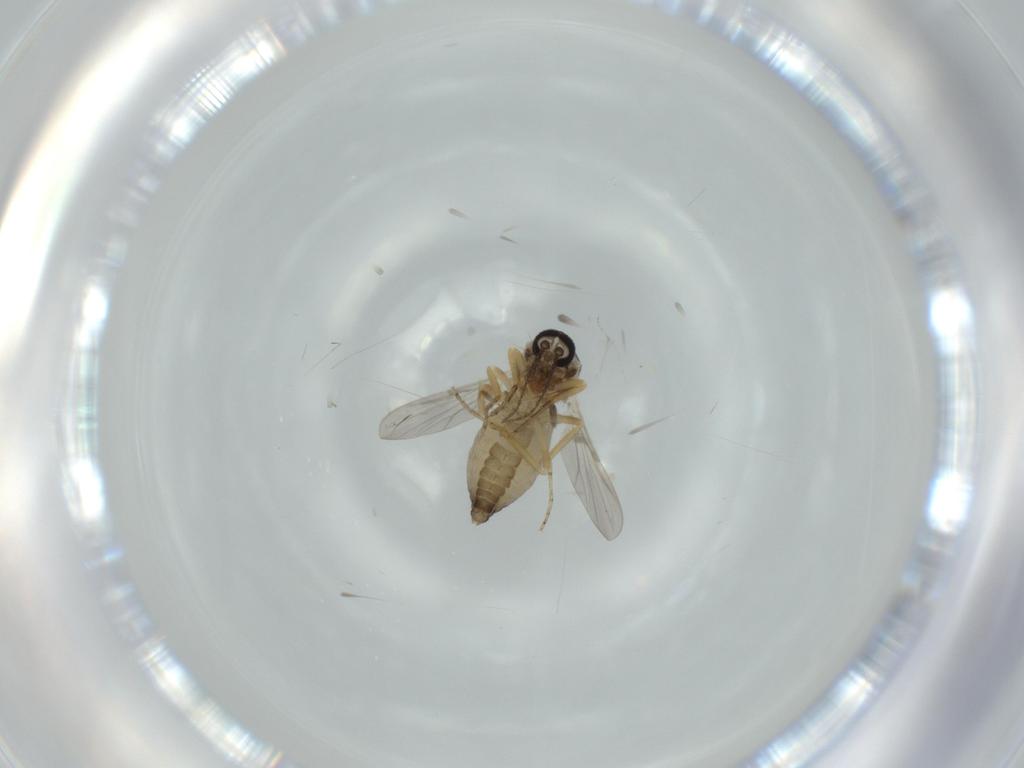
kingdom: Animalia
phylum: Arthropoda
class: Insecta
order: Diptera
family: Ceratopogonidae
